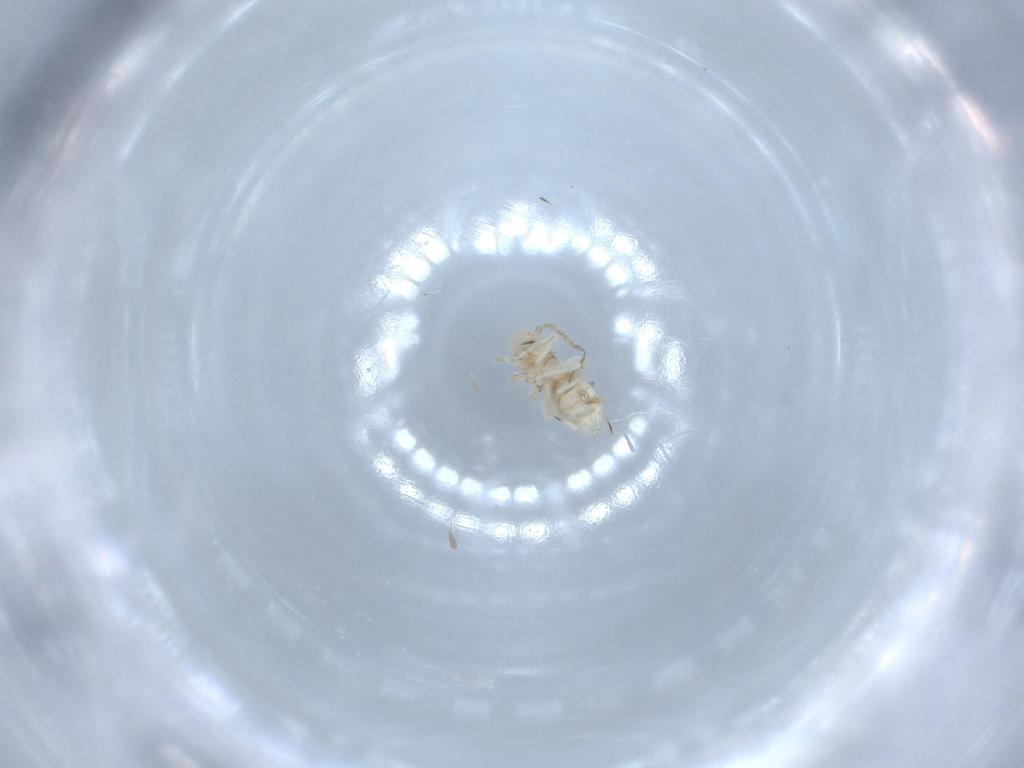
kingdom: Animalia
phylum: Arthropoda
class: Insecta
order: Psocodea
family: Caeciliusidae
